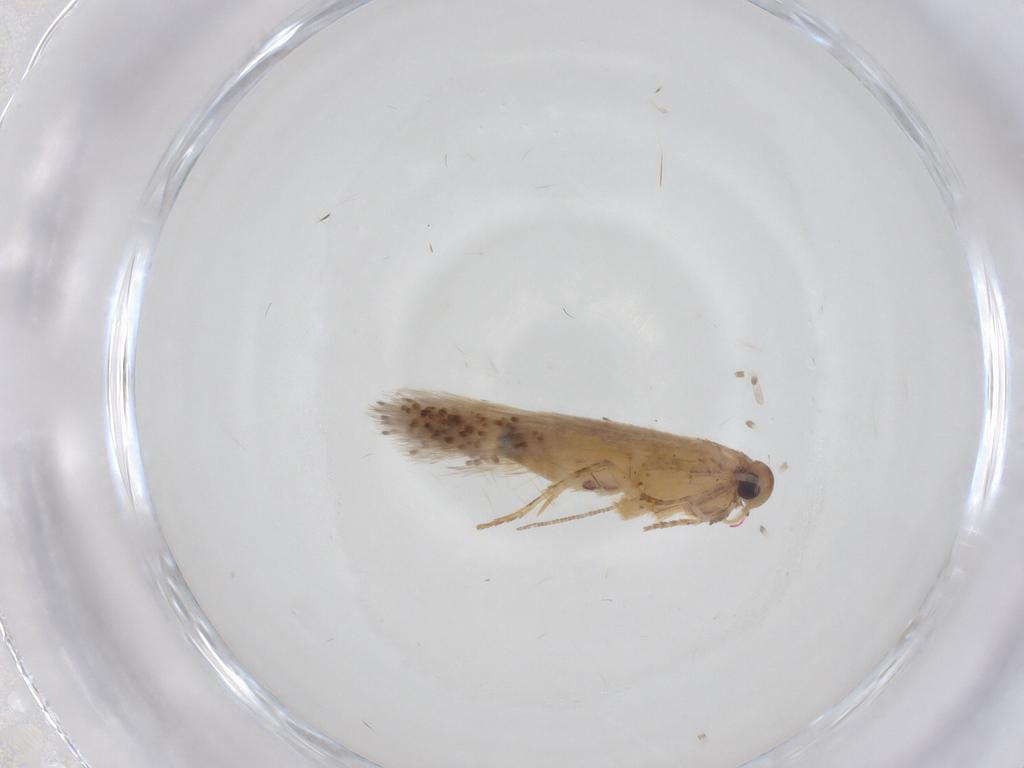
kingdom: Animalia
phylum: Arthropoda
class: Insecta
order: Lepidoptera
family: Gelechiidae
